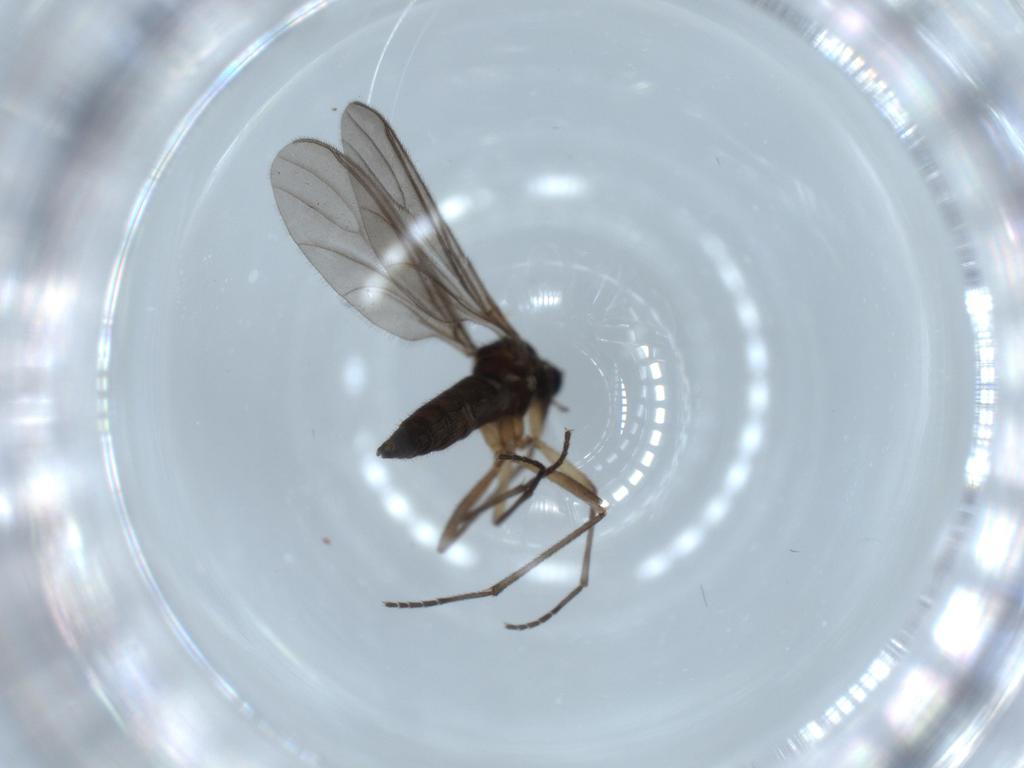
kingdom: Animalia
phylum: Arthropoda
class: Insecta
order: Diptera
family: Sciaridae
